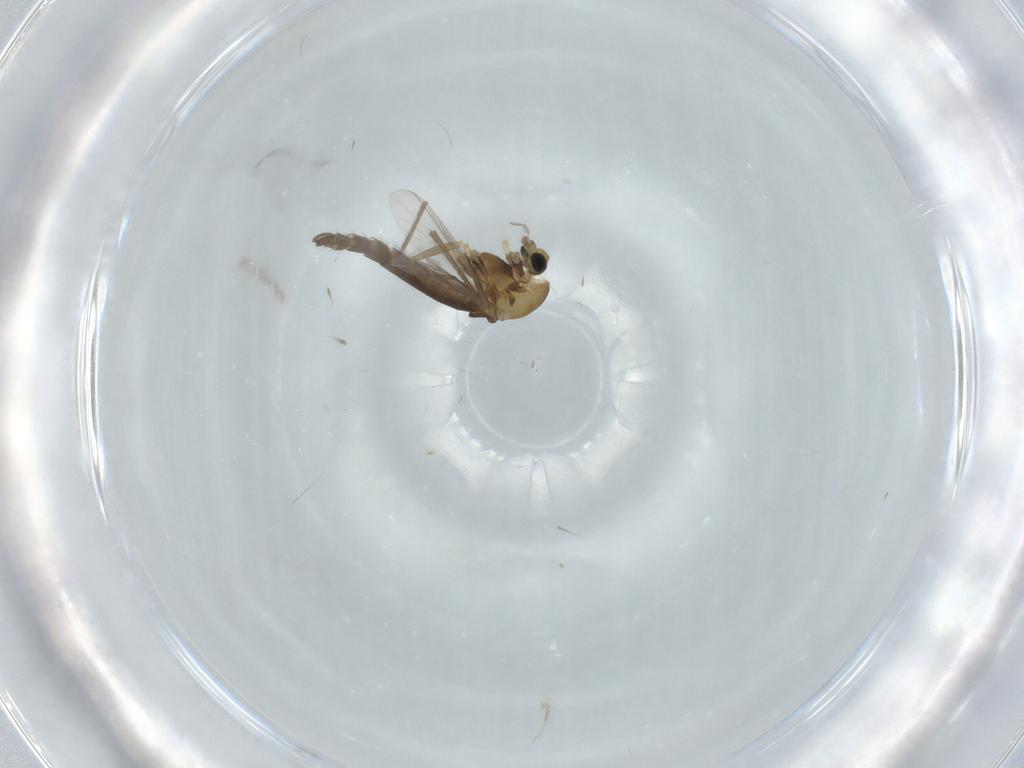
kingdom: Animalia
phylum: Arthropoda
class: Insecta
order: Diptera
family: Chironomidae
